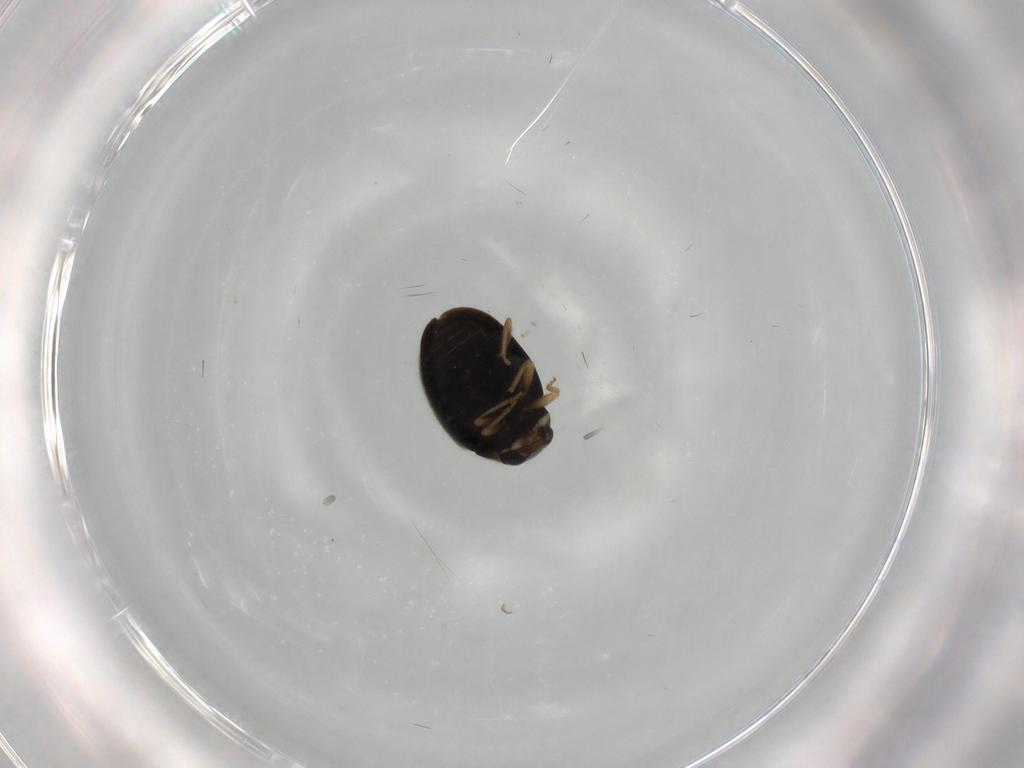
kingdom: Animalia
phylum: Arthropoda
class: Insecta
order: Coleoptera
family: Coccinellidae
